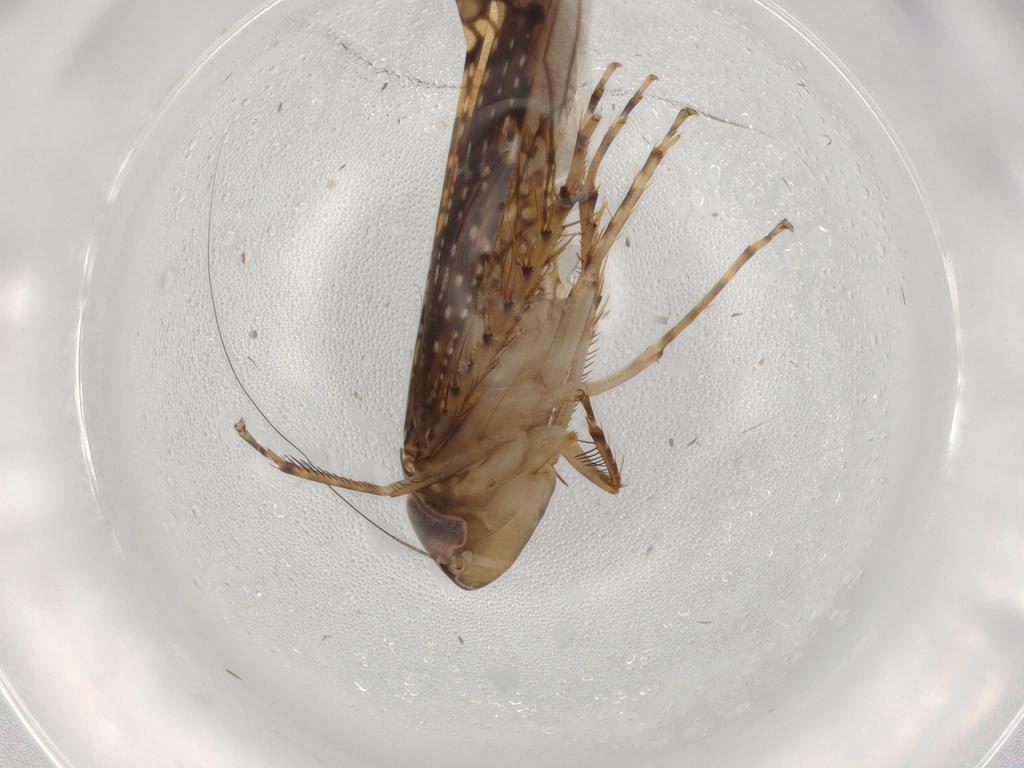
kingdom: Animalia
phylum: Arthropoda
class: Insecta
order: Hemiptera
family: Cicadellidae
